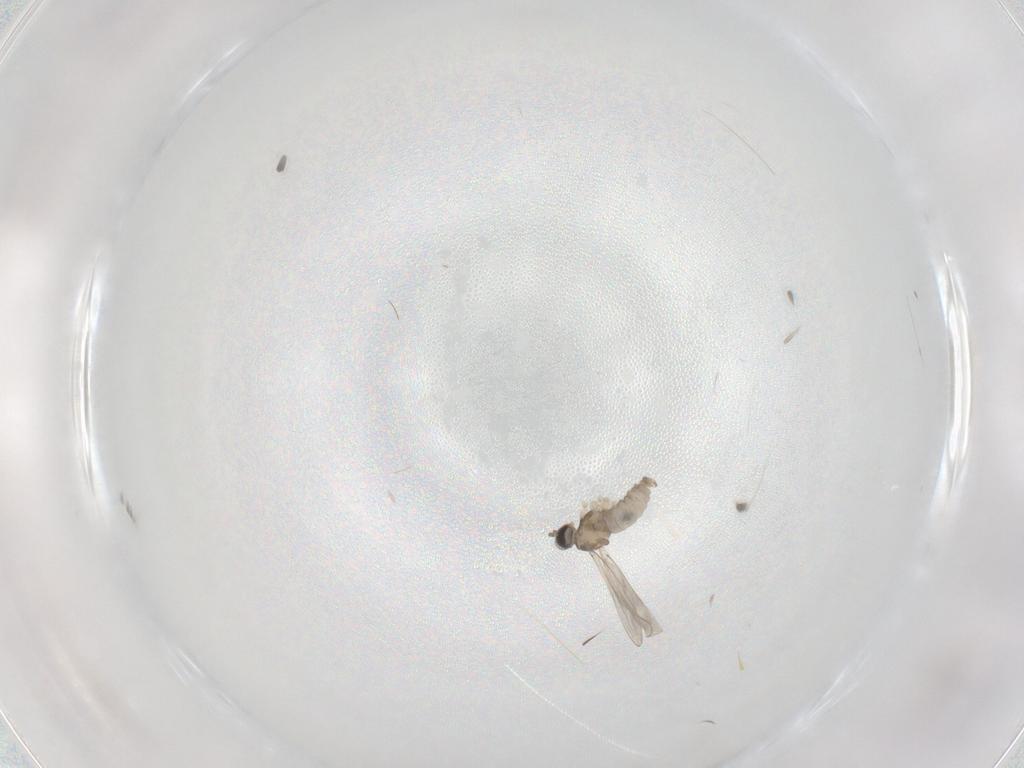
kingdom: Animalia
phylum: Arthropoda
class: Insecta
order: Diptera
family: Cecidomyiidae
